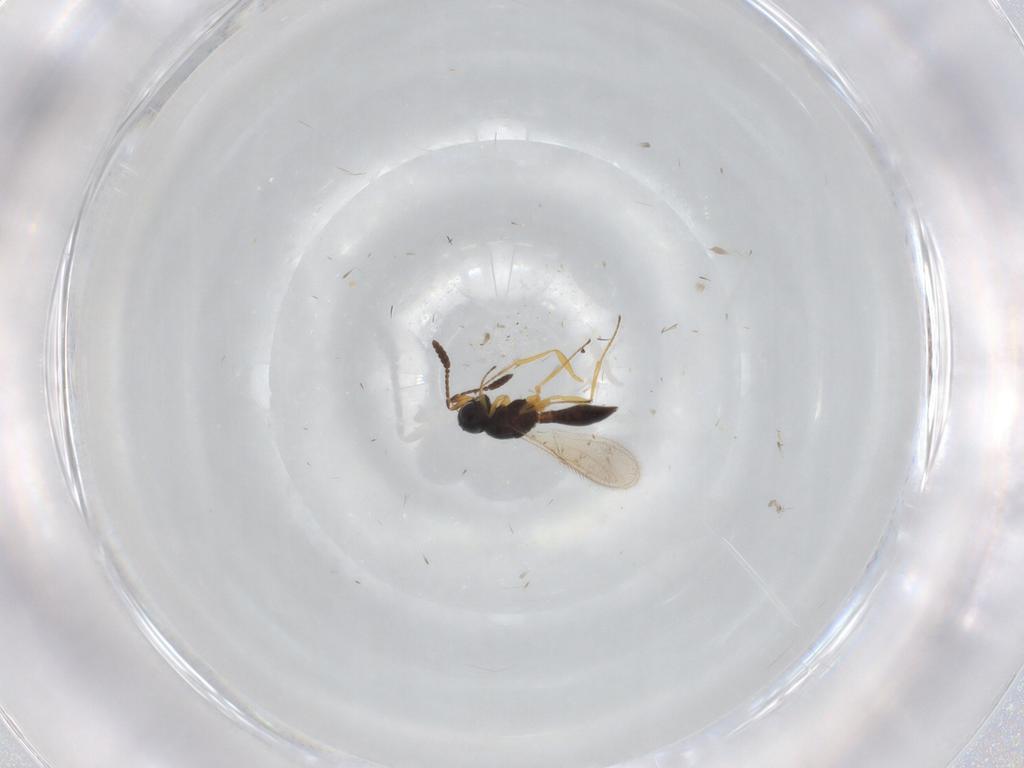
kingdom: Animalia
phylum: Arthropoda
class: Insecta
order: Hymenoptera
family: Scelionidae
